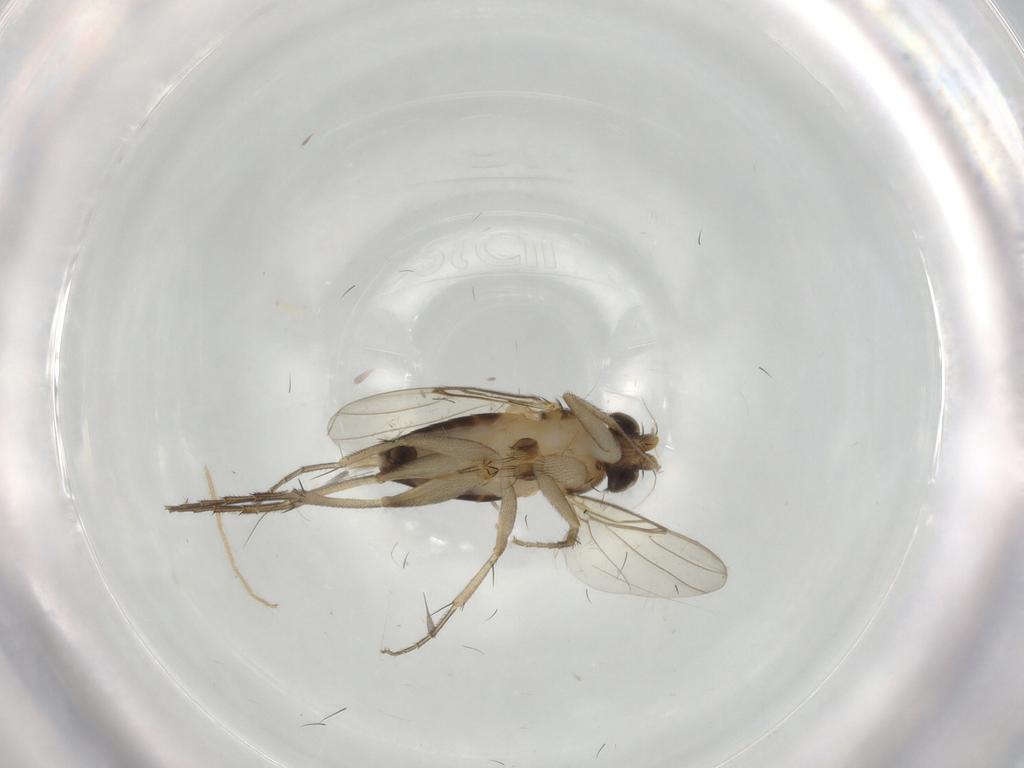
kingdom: Animalia
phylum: Arthropoda
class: Insecta
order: Diptera
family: Phoridae
